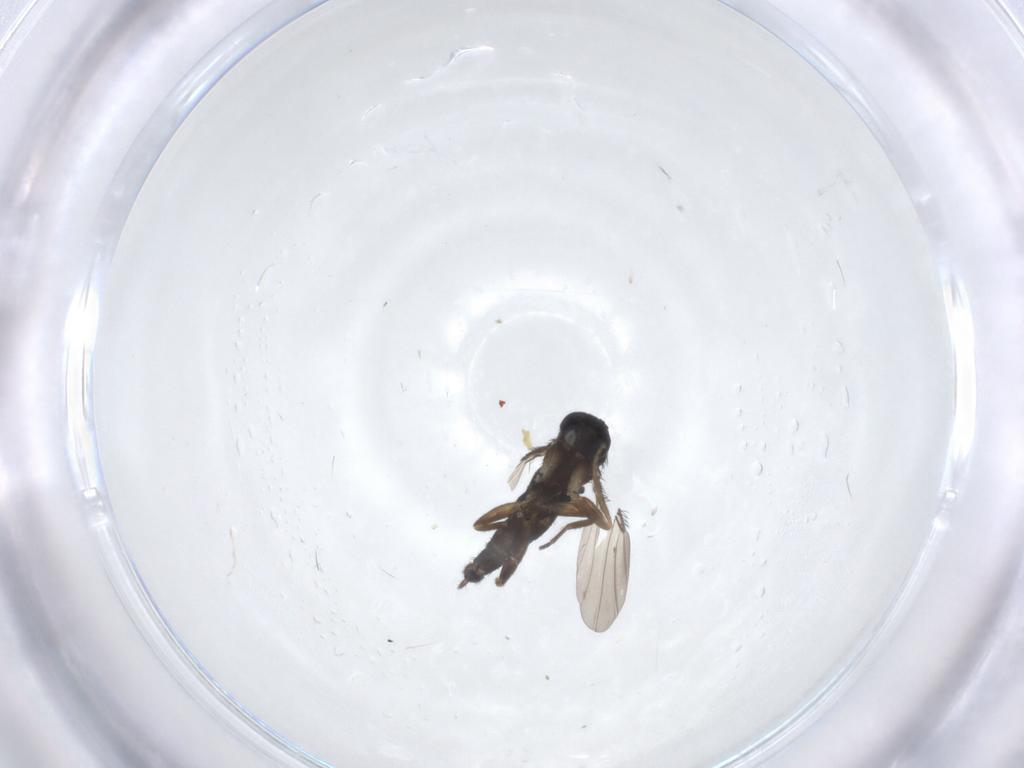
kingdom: Animalia
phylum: Arthropoda
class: Insecta
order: Diptera
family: Phoridae
